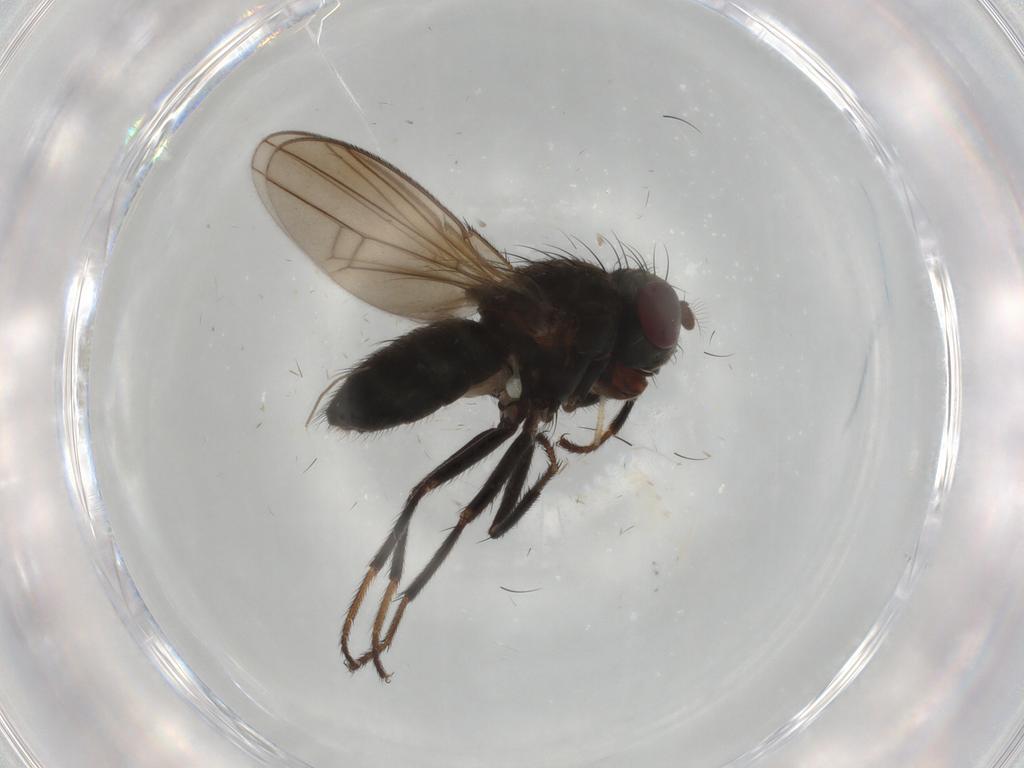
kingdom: Animalia
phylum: Arthropoda
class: Insecta
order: Diptera
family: Ephydridae
